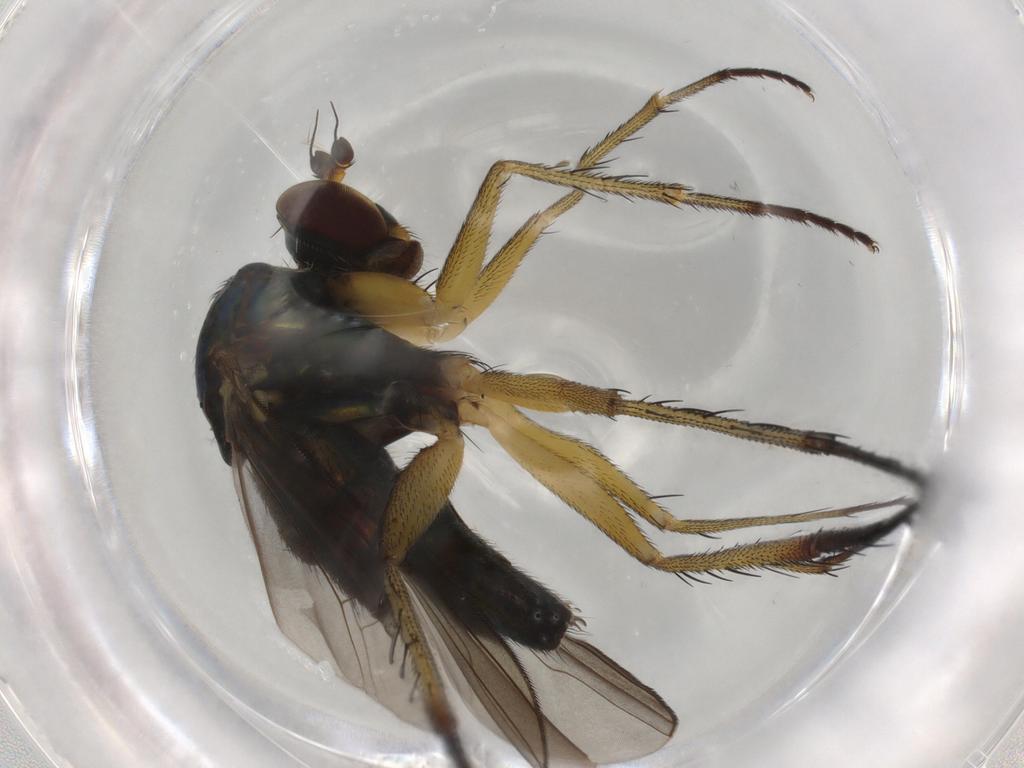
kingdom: Animalia
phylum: Arthropoda
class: Insecta
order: Diptera
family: Dolichopodidae
